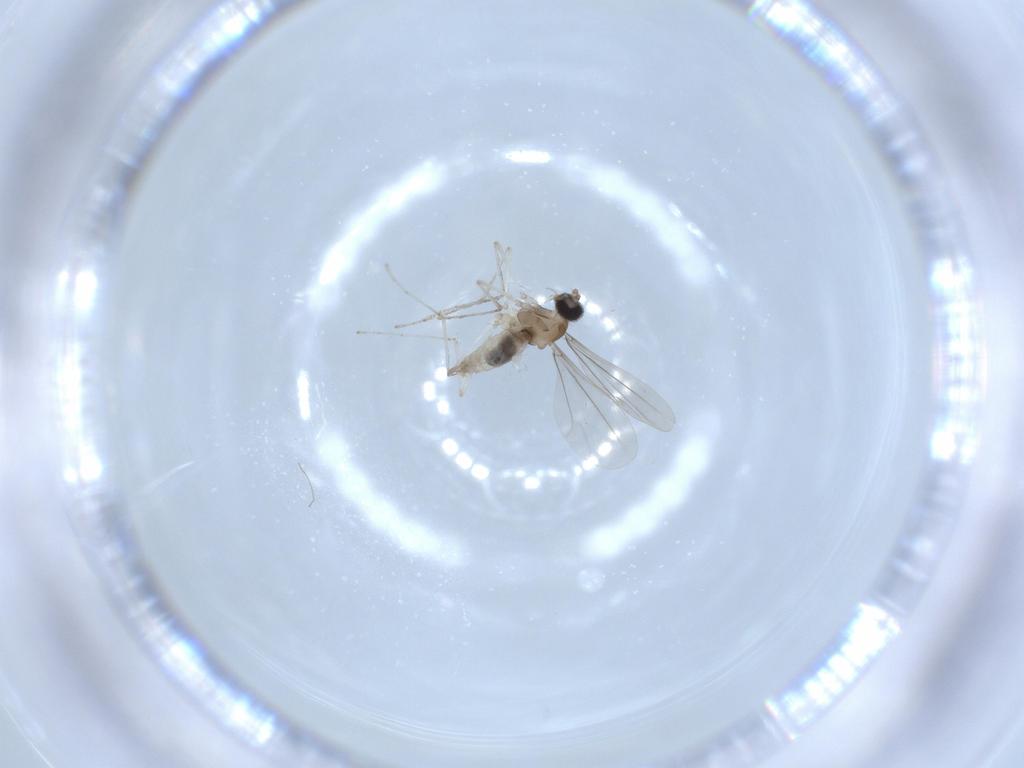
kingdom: Animalia
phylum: Arthropoda
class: Insecta
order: Diptera
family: Cecidomyiidae
